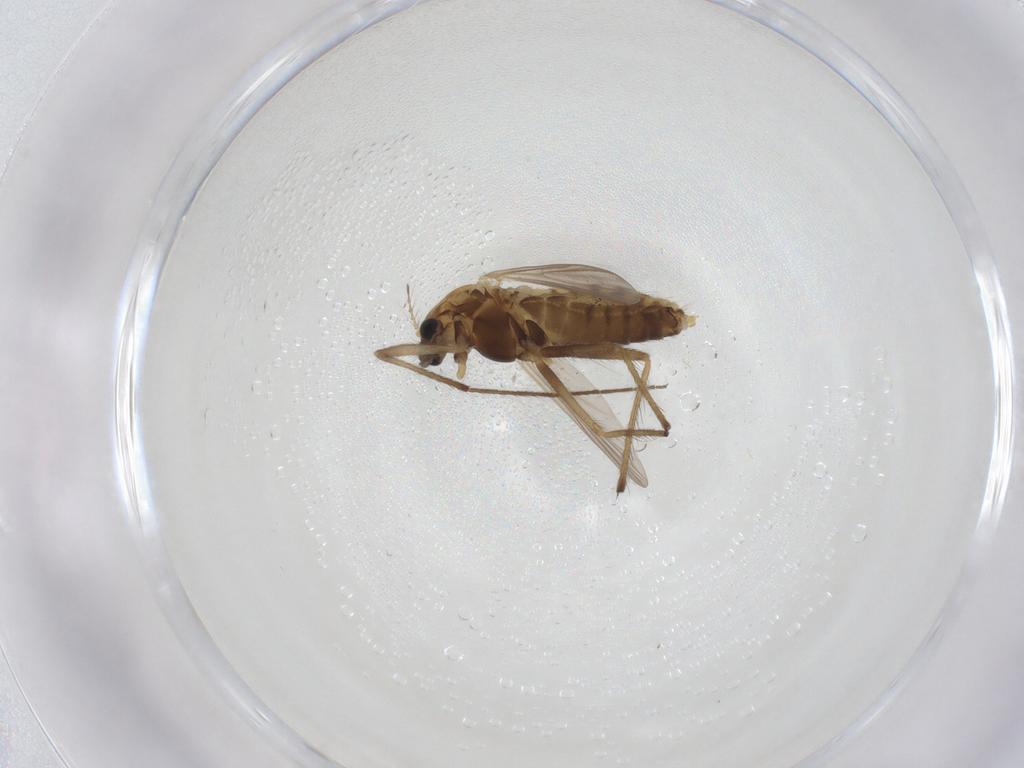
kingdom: Animalia
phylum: Arthropoda
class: Insecta
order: Diptera
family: Chironomidae
